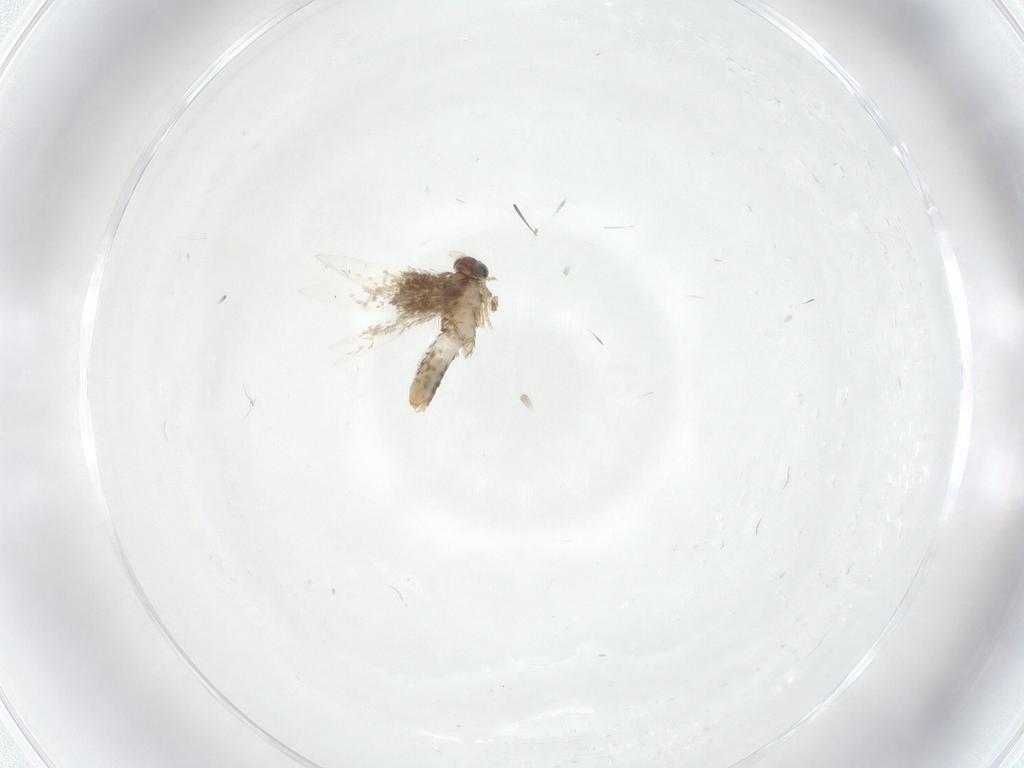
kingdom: Animalia
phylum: Arthropoda
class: Insecta
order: Lepidoptera
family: Nepticulidae
